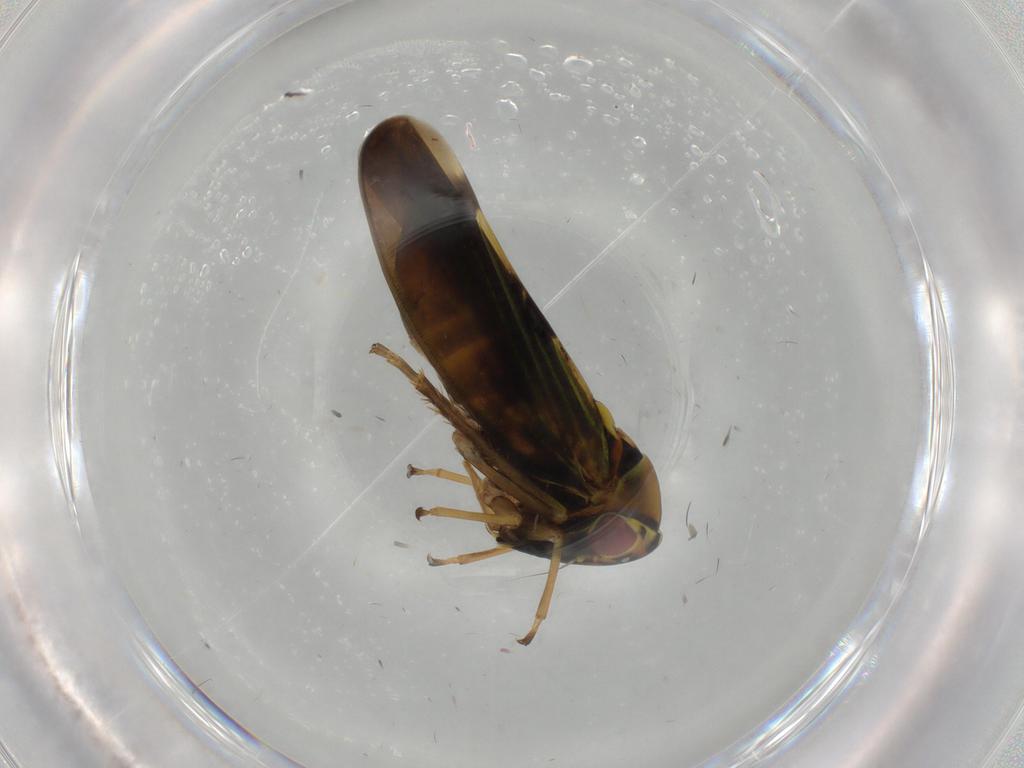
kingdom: Animalia
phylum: Arthropoda
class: Insecta
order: Hemiptera
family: Cicadellidae
